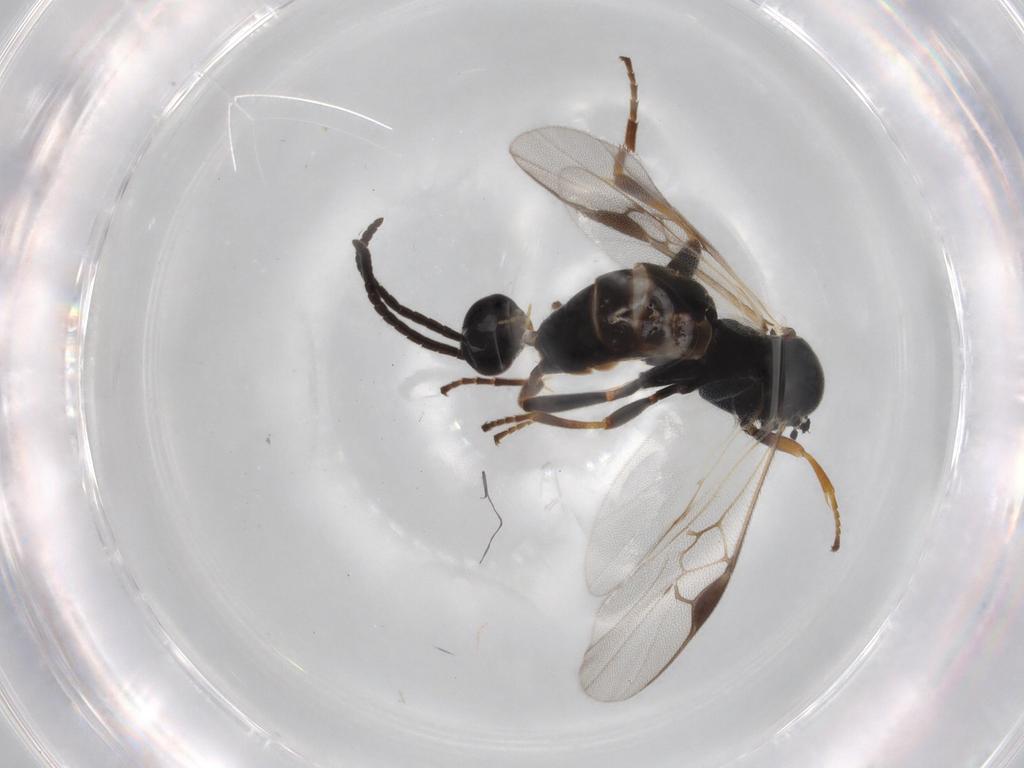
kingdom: Animalia
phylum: Arthropoda
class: Insecta
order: Hymenoptera
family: Braconidae
